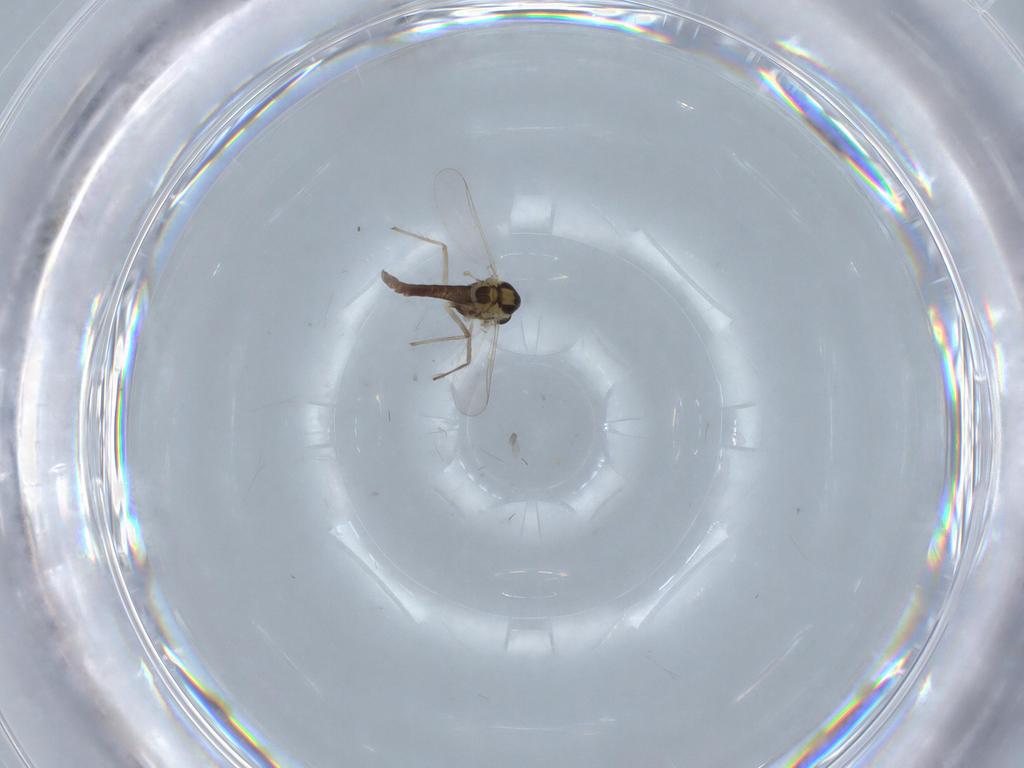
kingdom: Animalia
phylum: Arthropoda
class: Insecta
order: Diptera
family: Chironomidae
